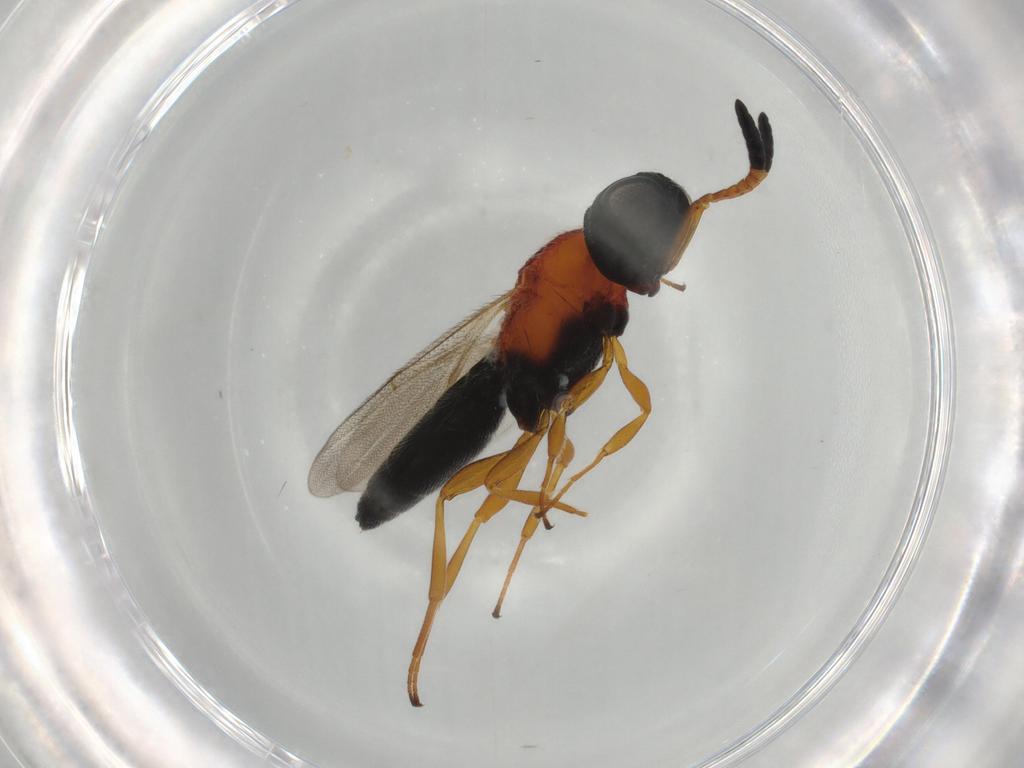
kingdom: Animalia
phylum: Arthropoda
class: Insecta
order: Hymenoptera
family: Scelionidae
